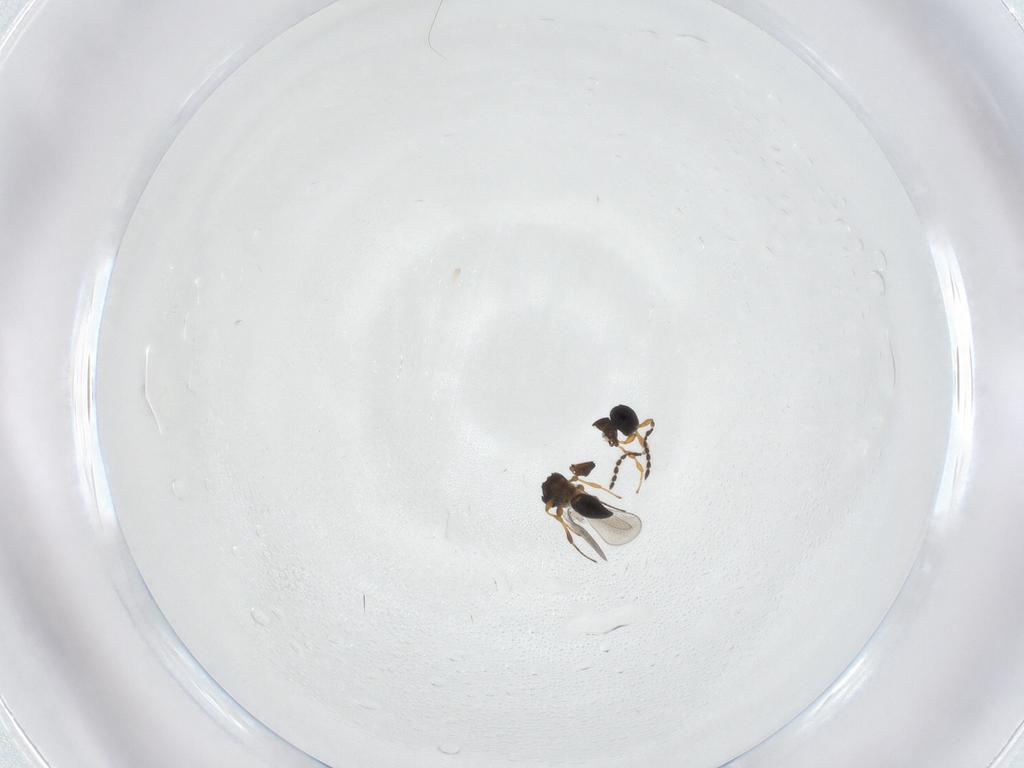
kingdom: Animalia
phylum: Arthropoda
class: Insecta
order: Hymenoptera
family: Platygastridae
